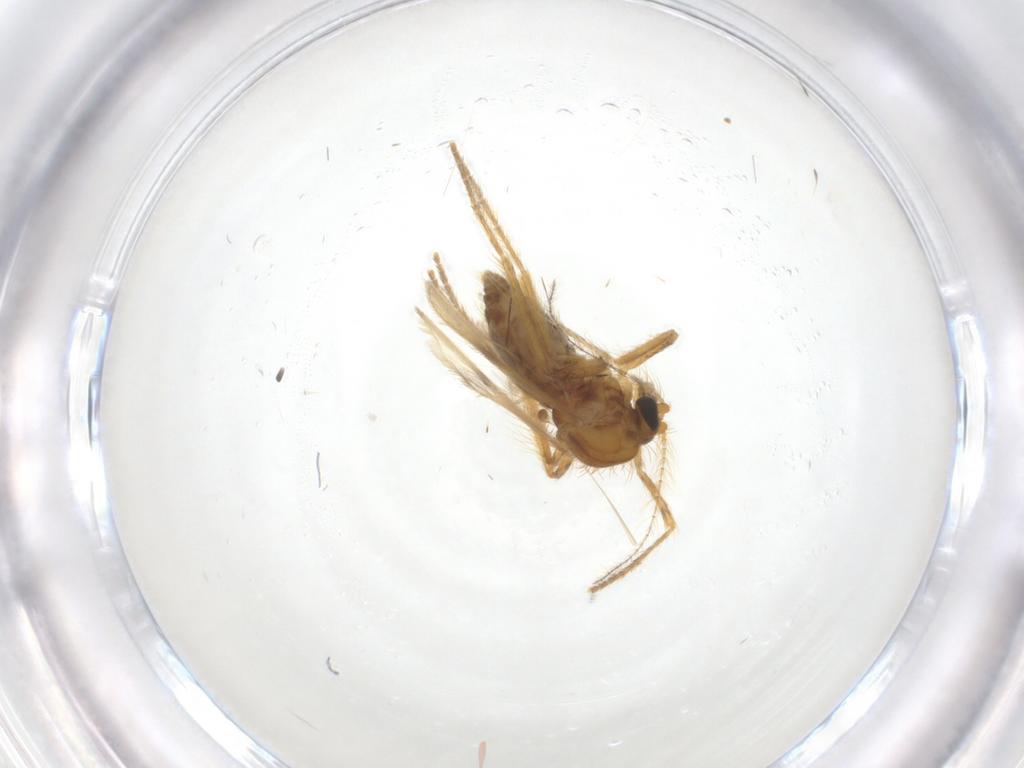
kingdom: Animalia
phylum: Arthropoda
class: Insecta
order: Diptera
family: Corethrellidae
